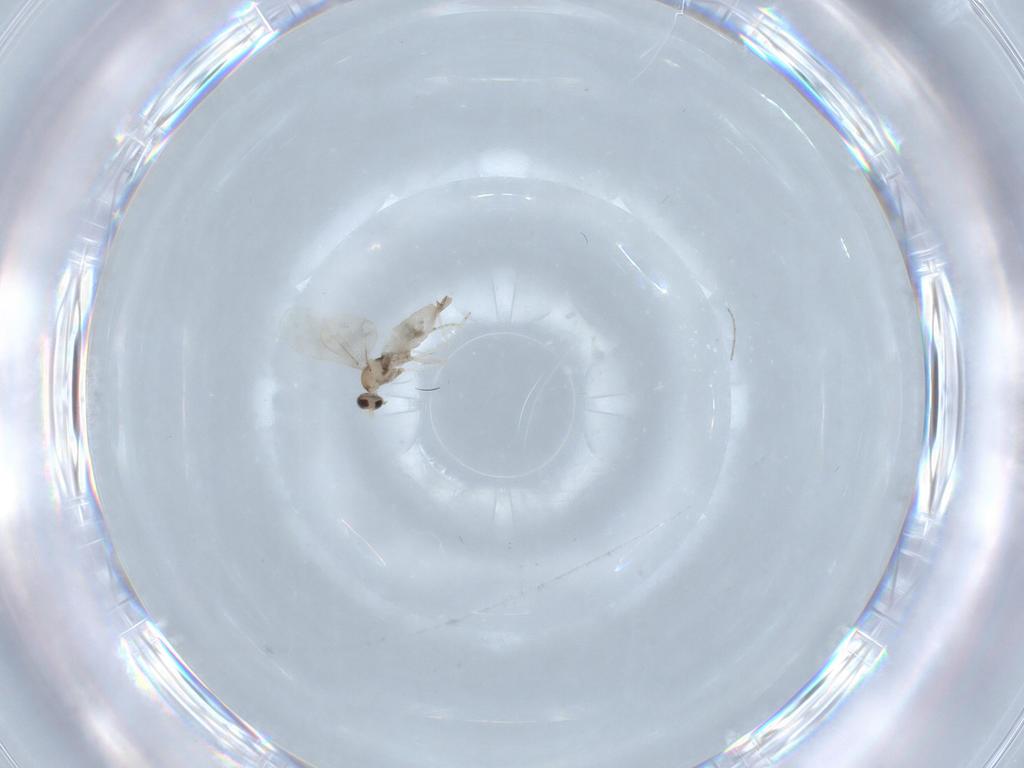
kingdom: Animalia
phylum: Arthropoda
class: Insecta
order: Diptera
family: Cecidomyiidae
